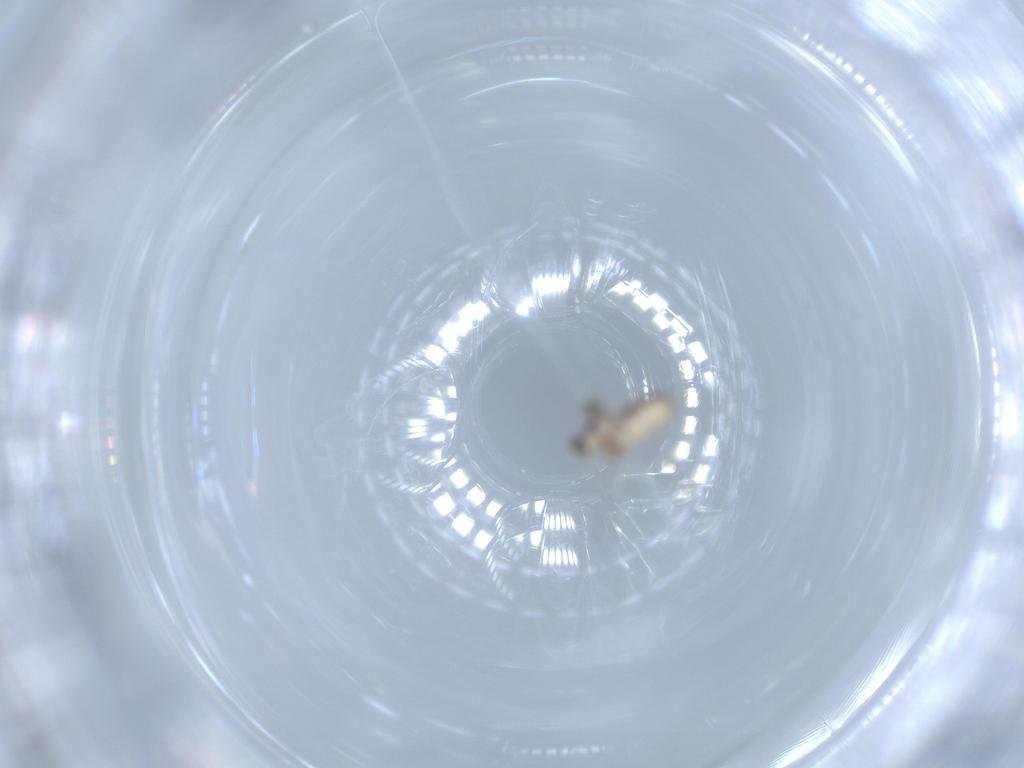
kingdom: Animalia
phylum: Arthropoda
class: Insecta
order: Diptera
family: Cecidomyiidae
